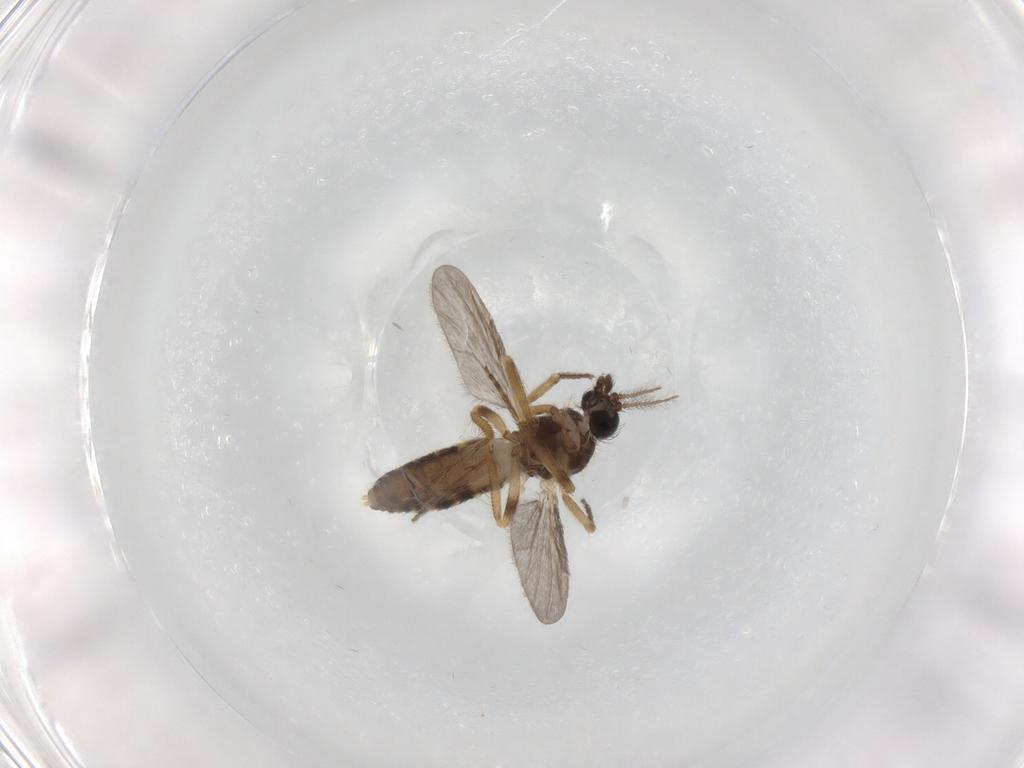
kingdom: Animalia
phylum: Arthropoda
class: Insecta
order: Diptera
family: Ceratopogonidae
